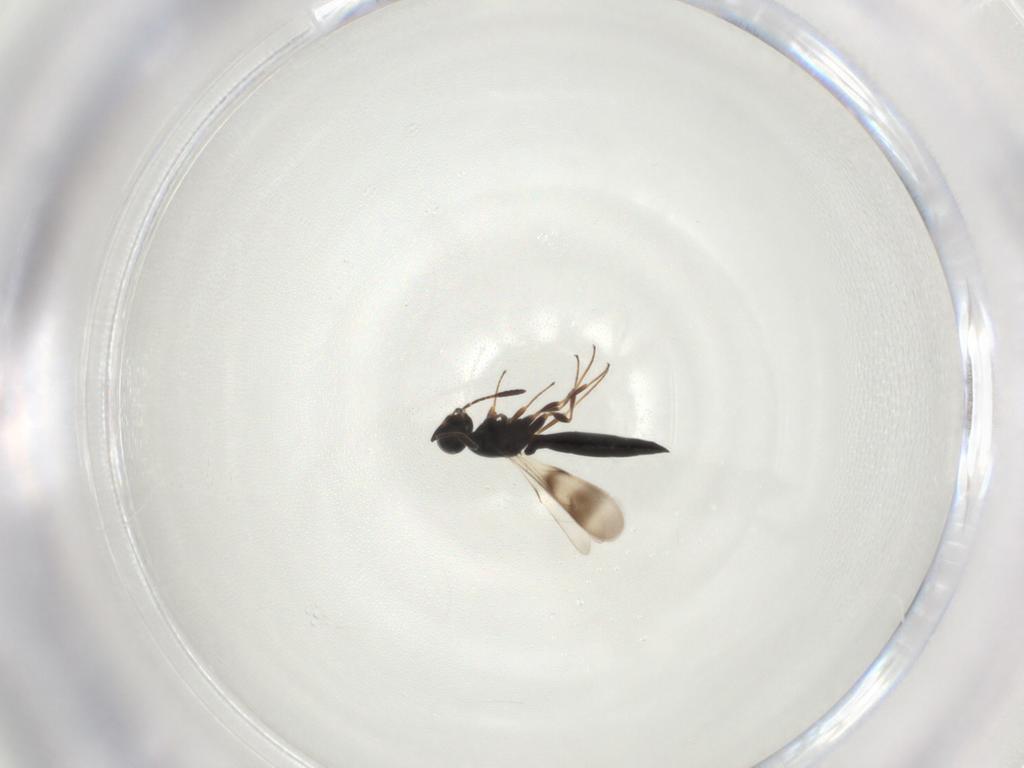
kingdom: Animalia
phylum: Arthropoda
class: Insecta
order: Hymenoptera
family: Scelionidae
